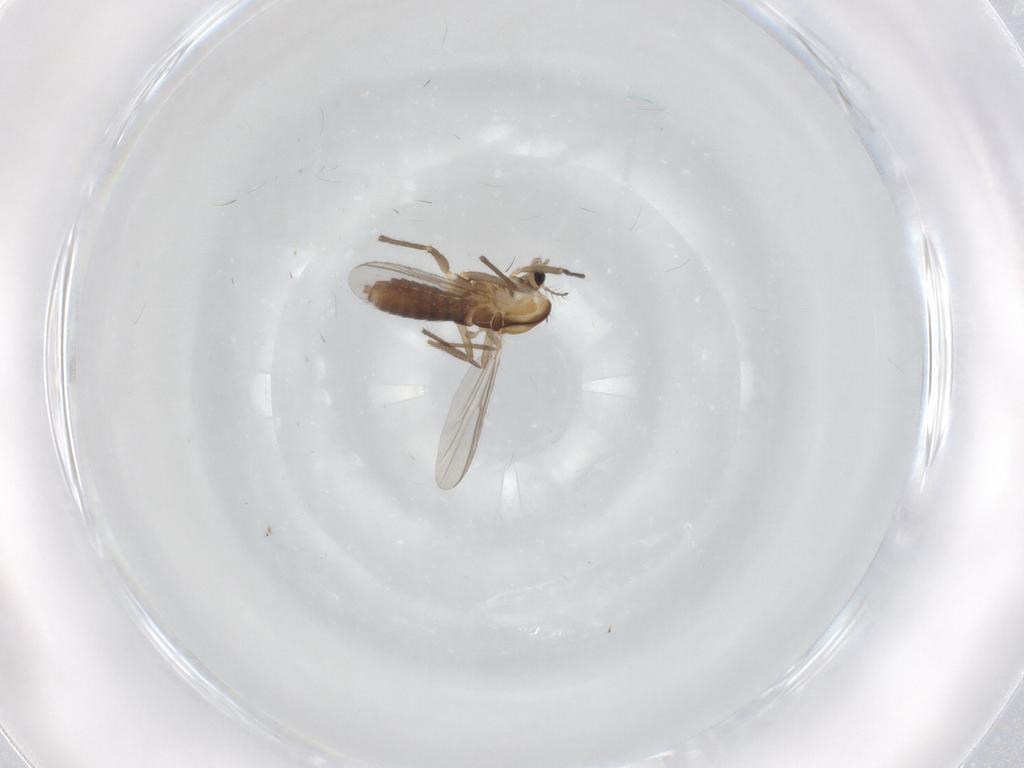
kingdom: Animalia
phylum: Arthropoda
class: Insecta
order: Diptera
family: Chironomidae
